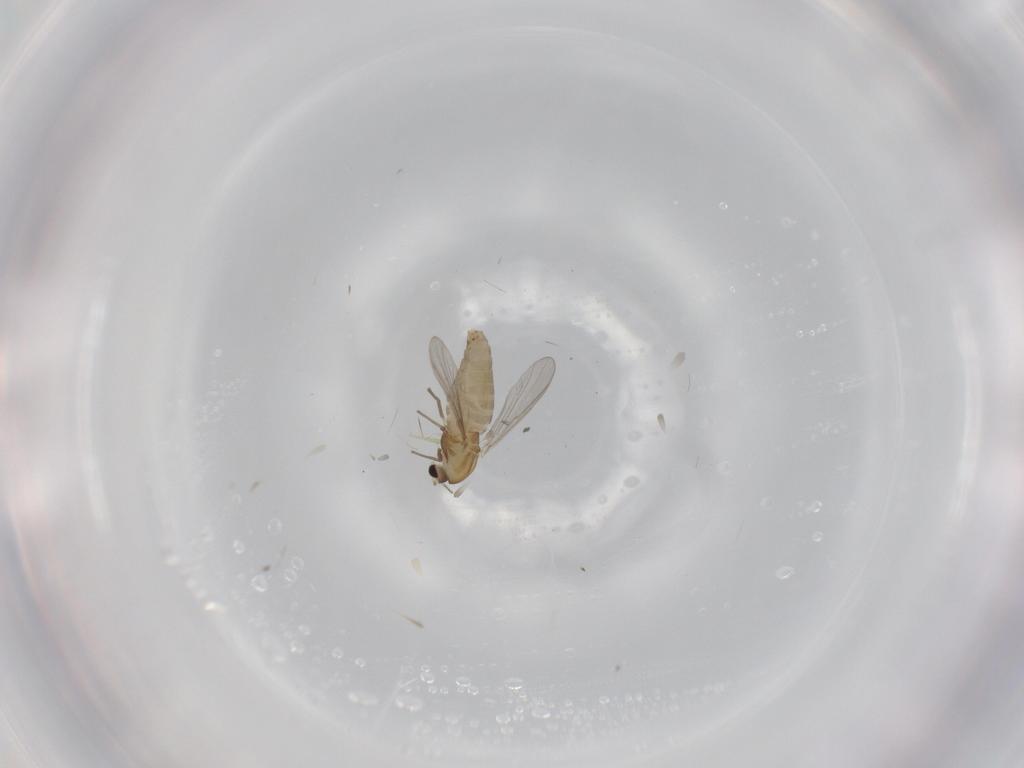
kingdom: Animalia
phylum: Arthropoda
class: Insecta
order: Diptera
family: Chironomidae
